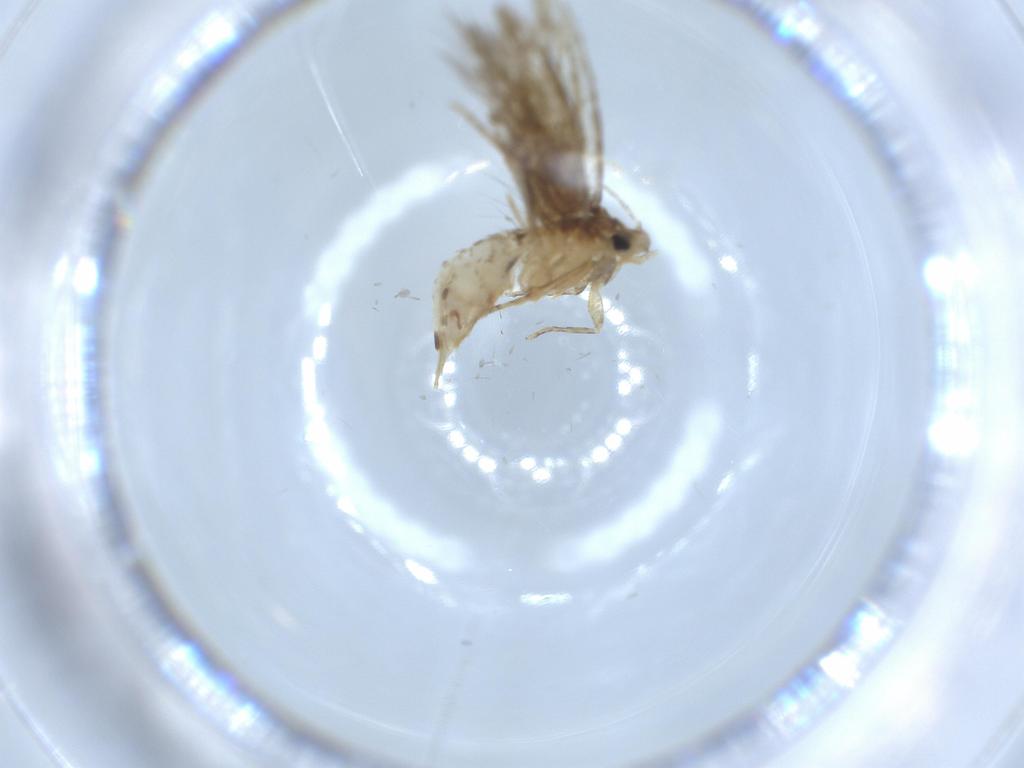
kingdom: Animalia
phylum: Arthropoda
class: Insecta
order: Lepidoptera
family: Tineidae
